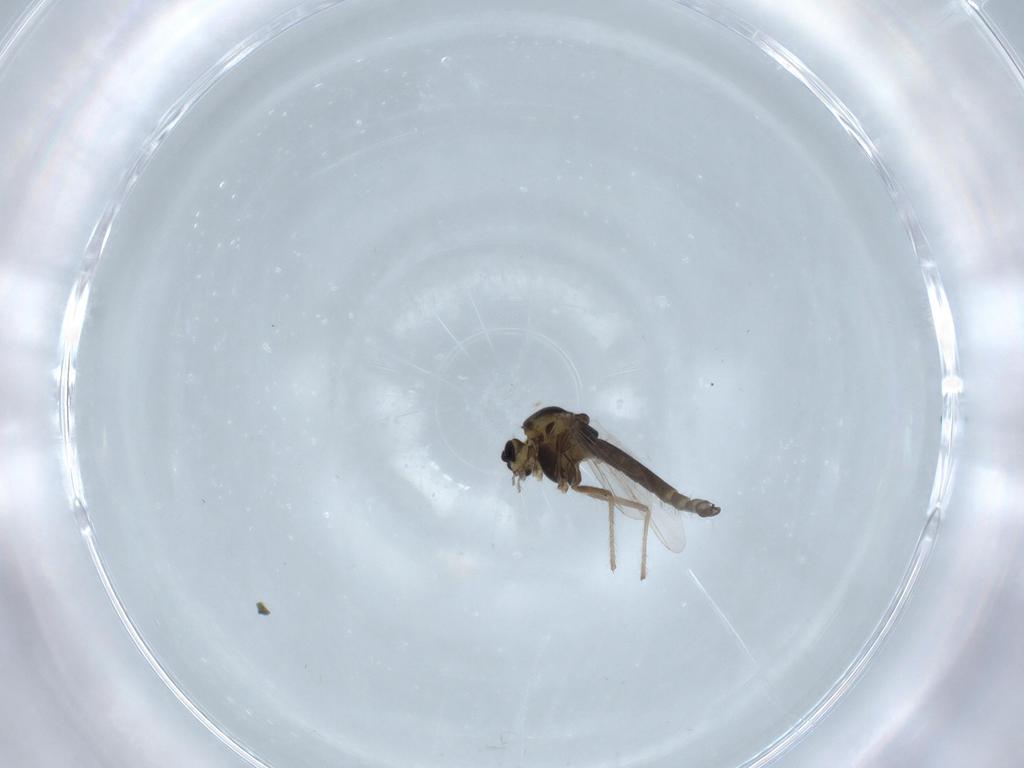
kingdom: Animalia
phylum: Arthropoda
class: Insecta
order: Diptera
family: Chironomidae
